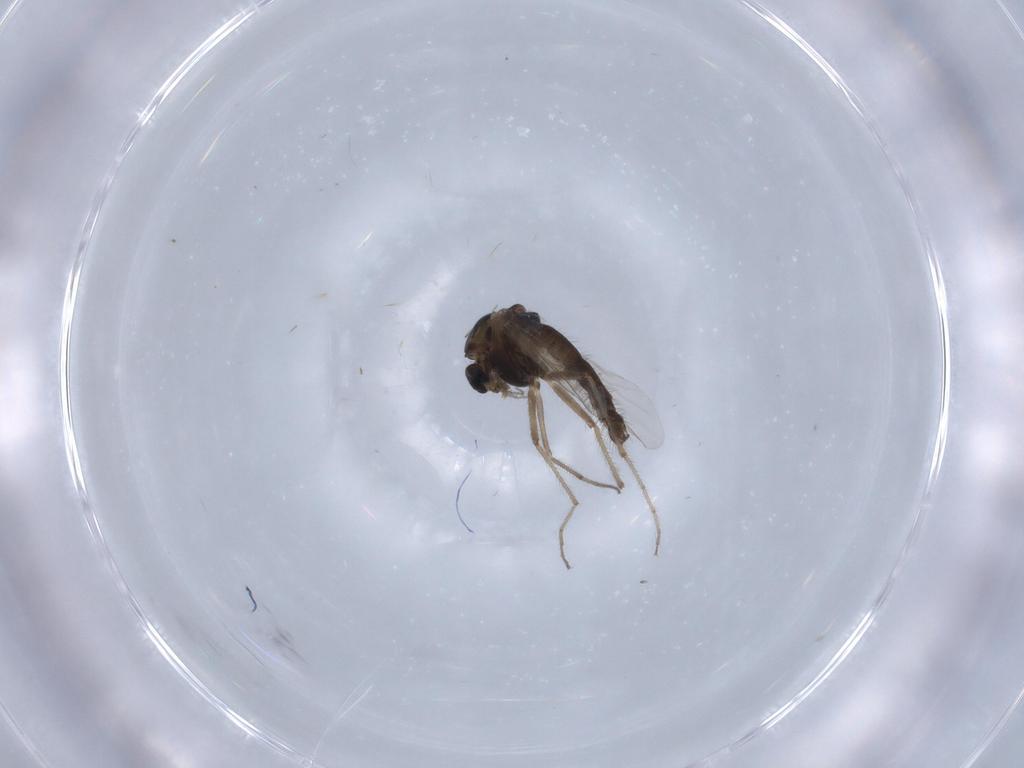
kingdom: Animalia
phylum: Arthropoda
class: Insecta
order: Diptera
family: Chironomidae
